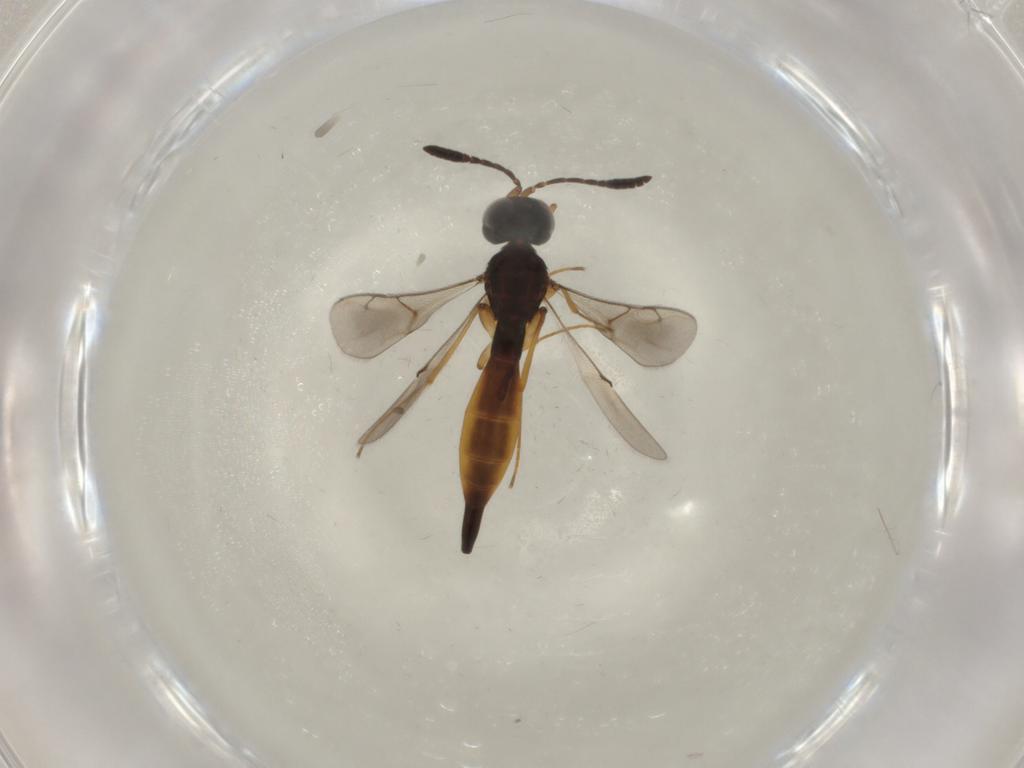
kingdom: Animalia
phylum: Arthropoda
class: Insecta
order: Hymenoptera
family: Scelionidae
